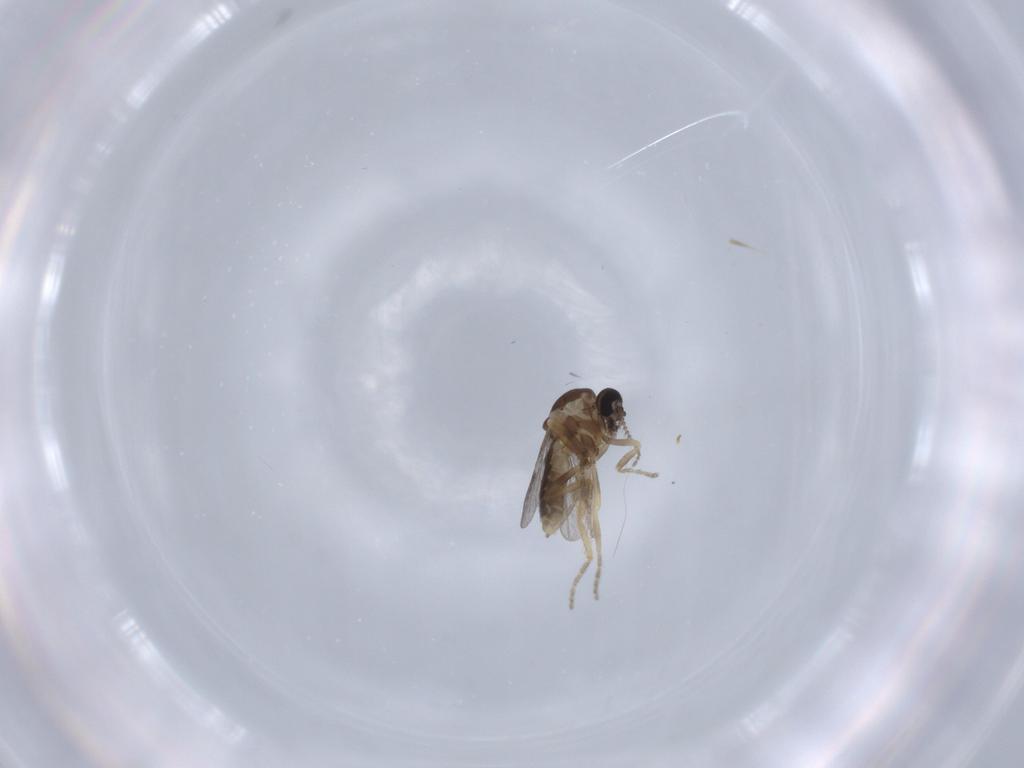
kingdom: Animalia
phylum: Arthropoda
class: Insecta
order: Diptera
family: Ceratopogonidae
